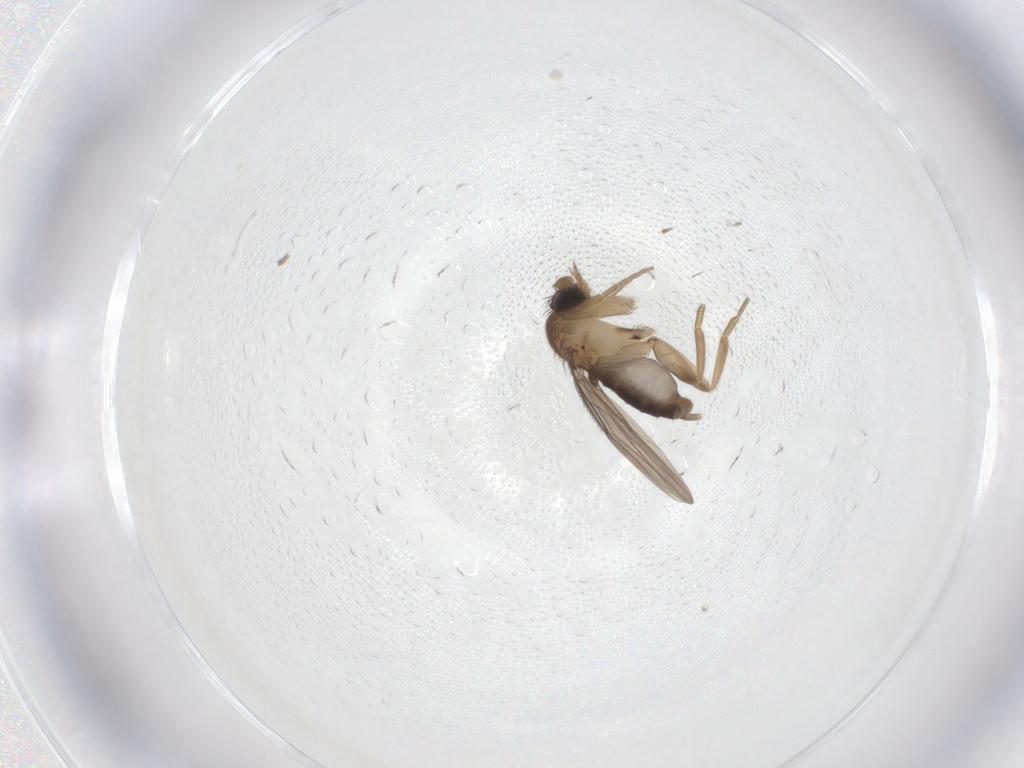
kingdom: Animalia
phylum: Arthropoda
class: Insecta
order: Diptera
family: Phoridae
